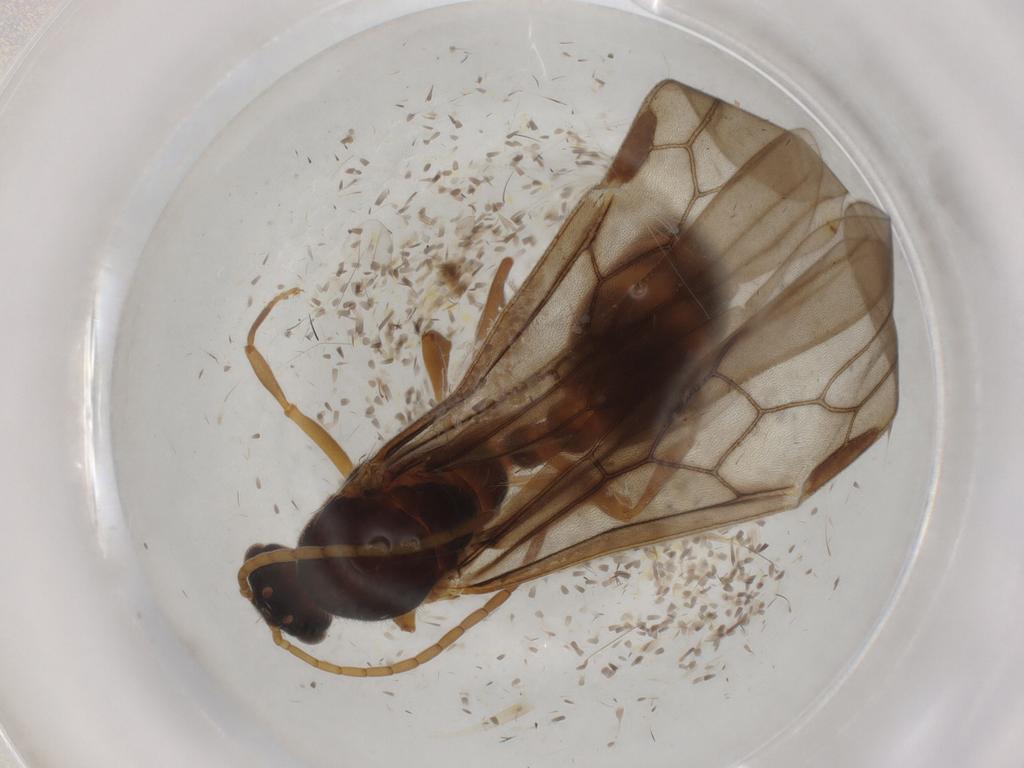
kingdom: Animalia
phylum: Arthropoda
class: Insecta
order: Hymenoptera
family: Formicidae
